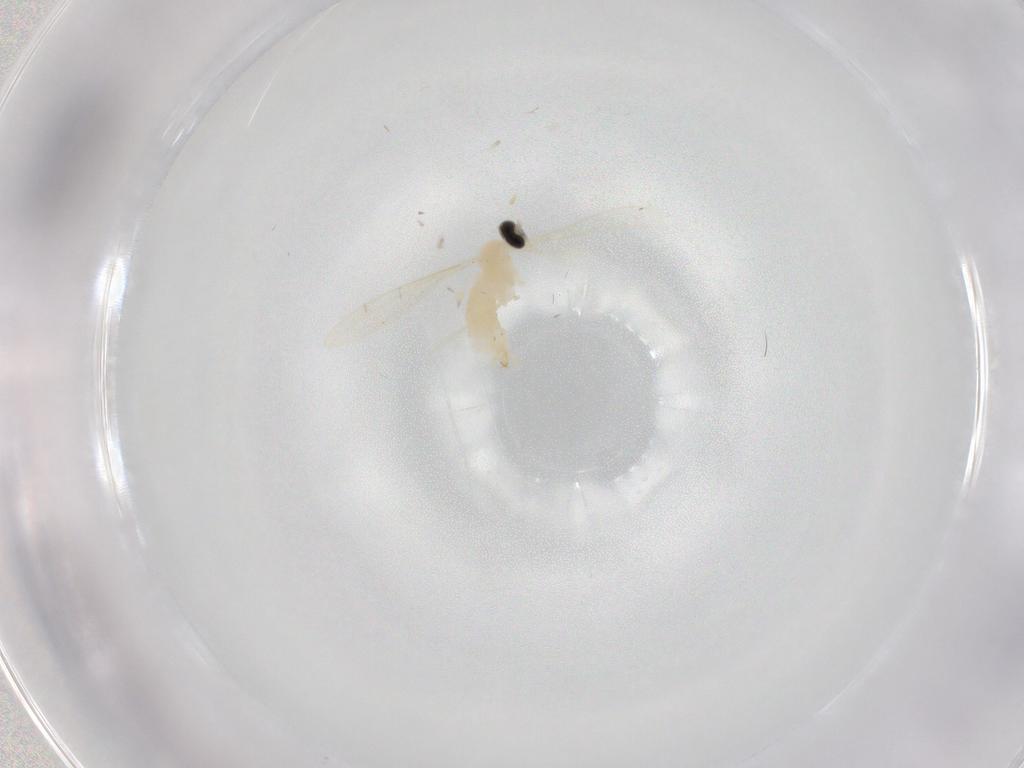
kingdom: Animalia
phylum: Arthropoda
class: Insecta
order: Diptera
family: Cecidomyiidae
